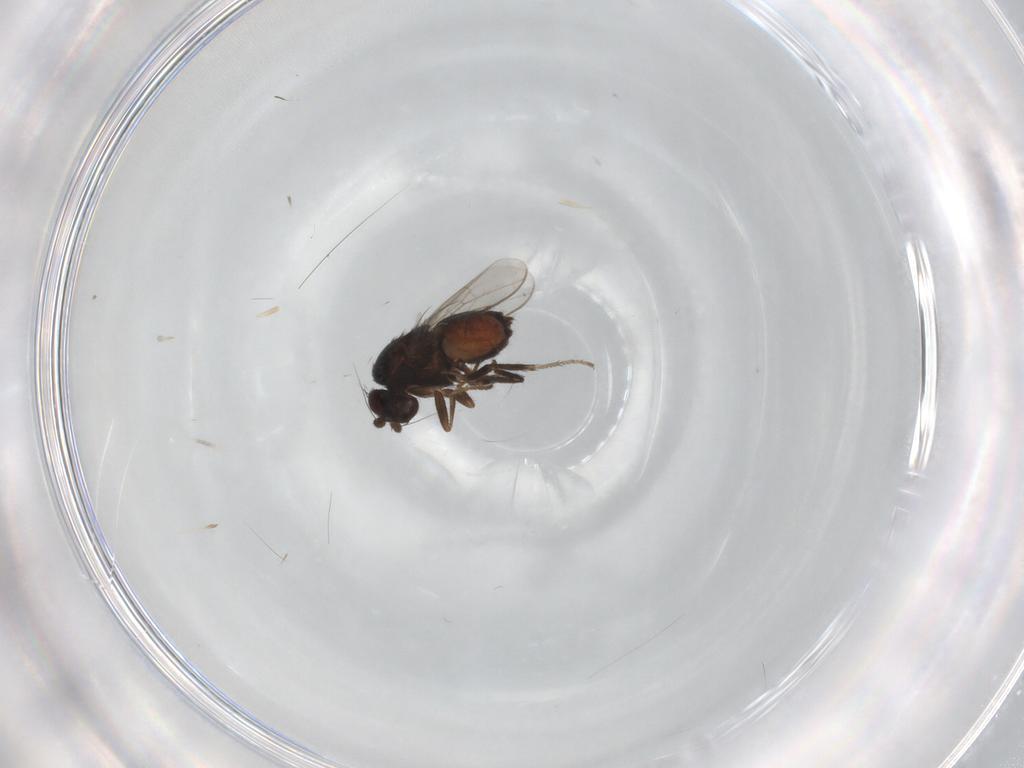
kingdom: Animalia
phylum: Arthropoda
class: Insecta
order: Diptera
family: Sphaeroceridae
